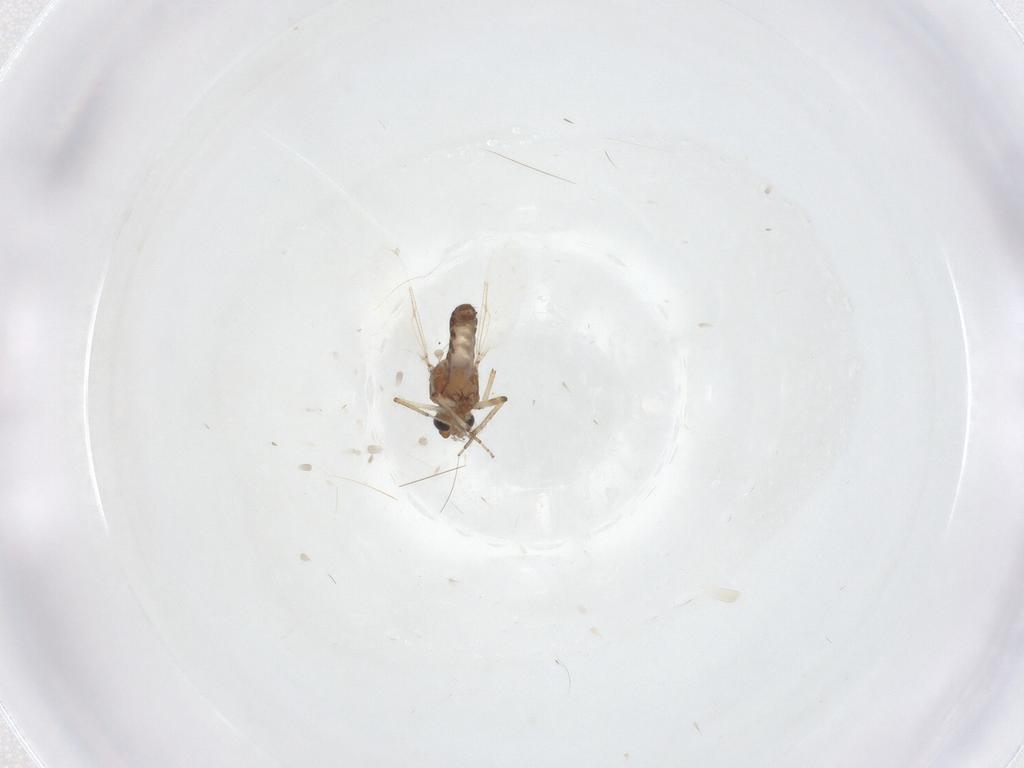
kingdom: Animalia
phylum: Arthropoda
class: Insecta
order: Diptera
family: Ceratopogonidae
